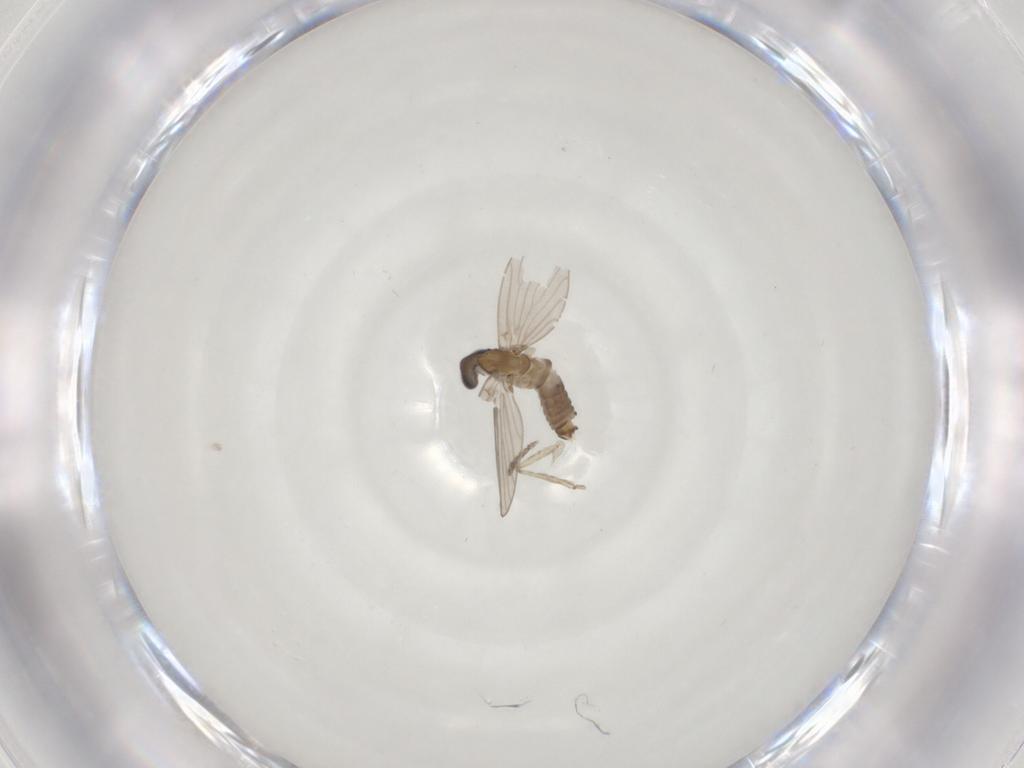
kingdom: Animalia
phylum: Arthropoda
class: Insecta
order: Diptera
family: Psychodidae
